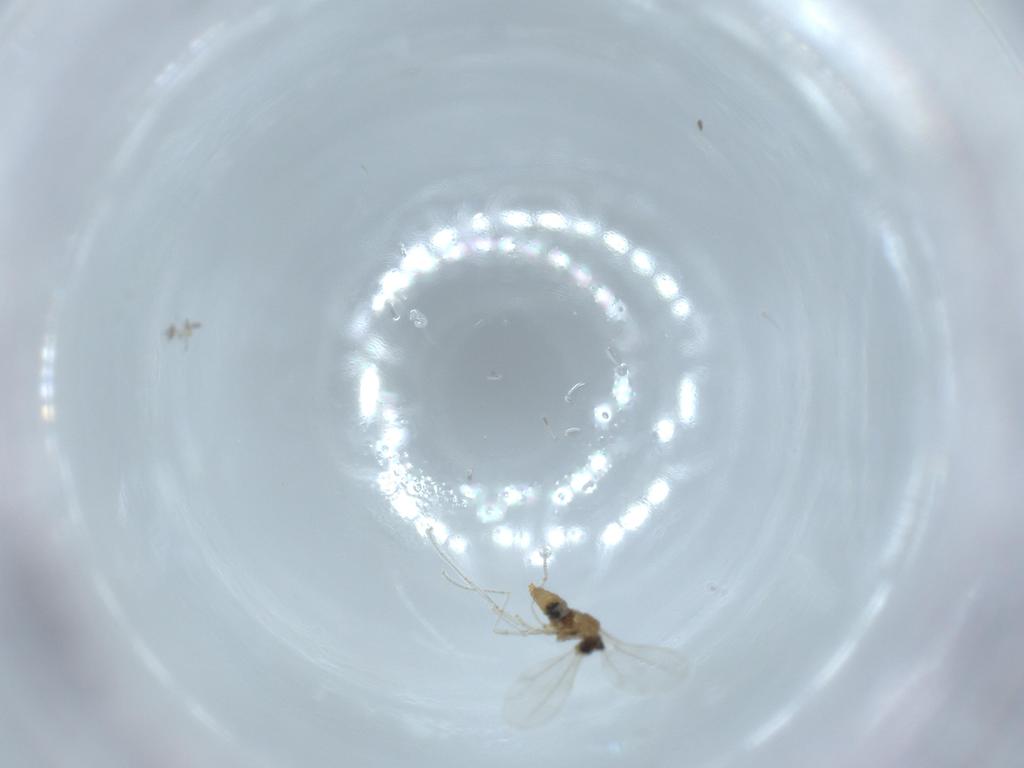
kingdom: Animalia
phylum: Arthropoda
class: Insecta
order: Diptera
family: Cecidomyiidae
